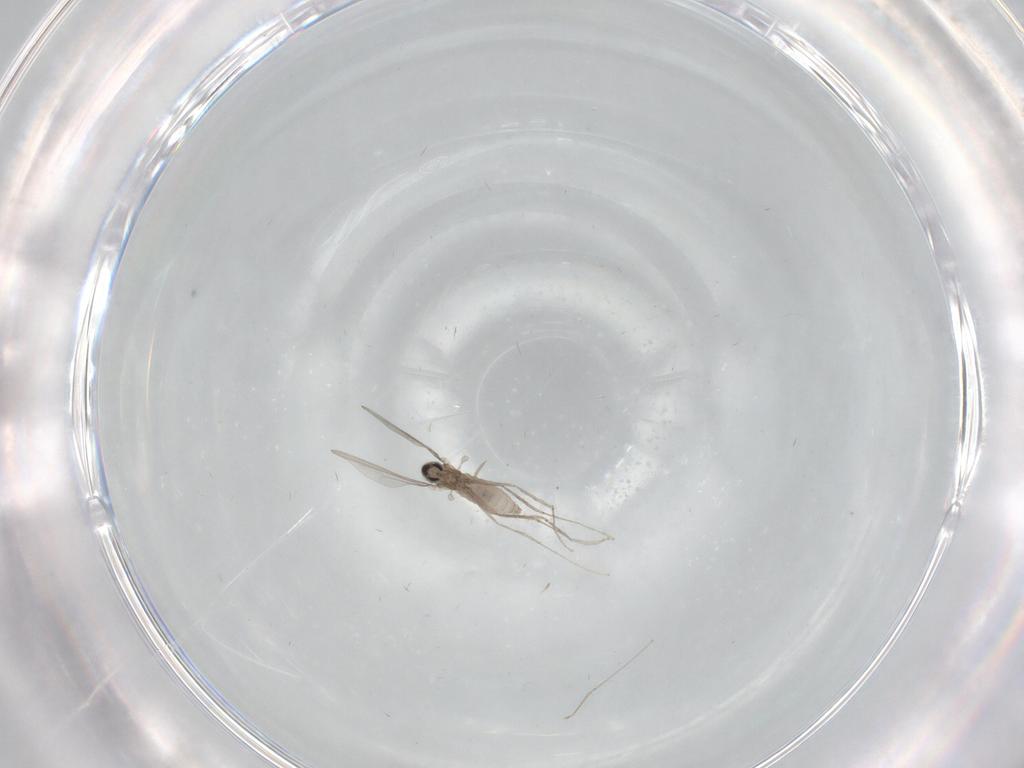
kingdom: Animalia
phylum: Arthropoda
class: Insecta
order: Diptera
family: Cecidomyiidae
